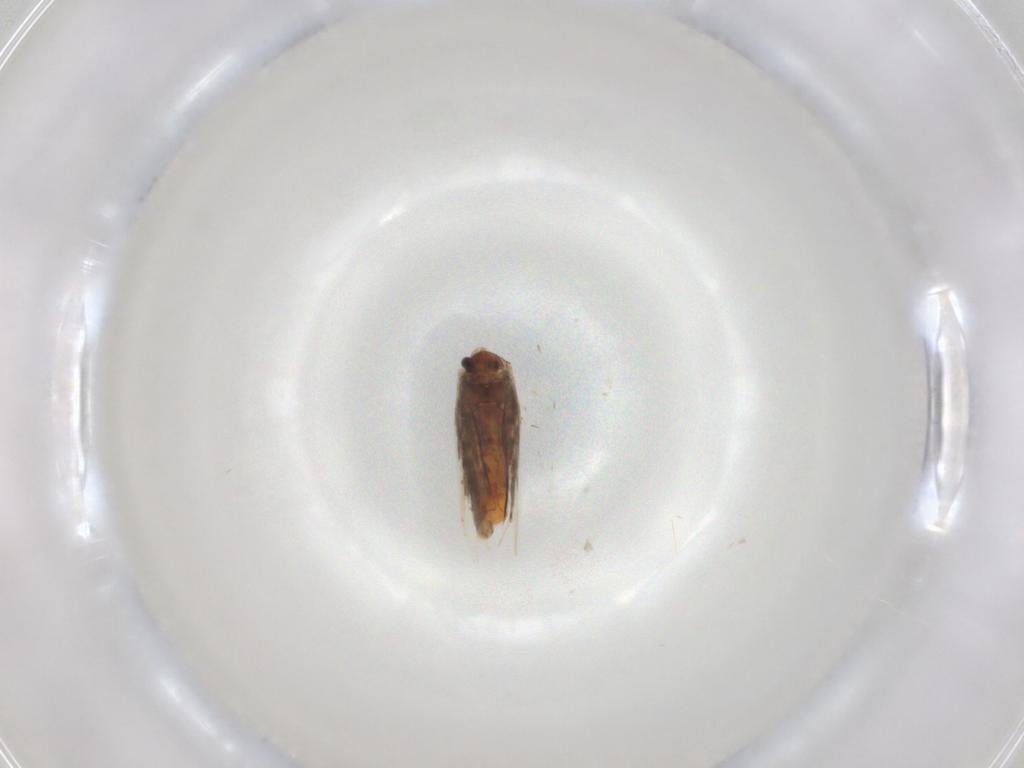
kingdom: Animalia
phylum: Arthropoda
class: Insecta
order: Lepidoptera
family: Nepticulidae
